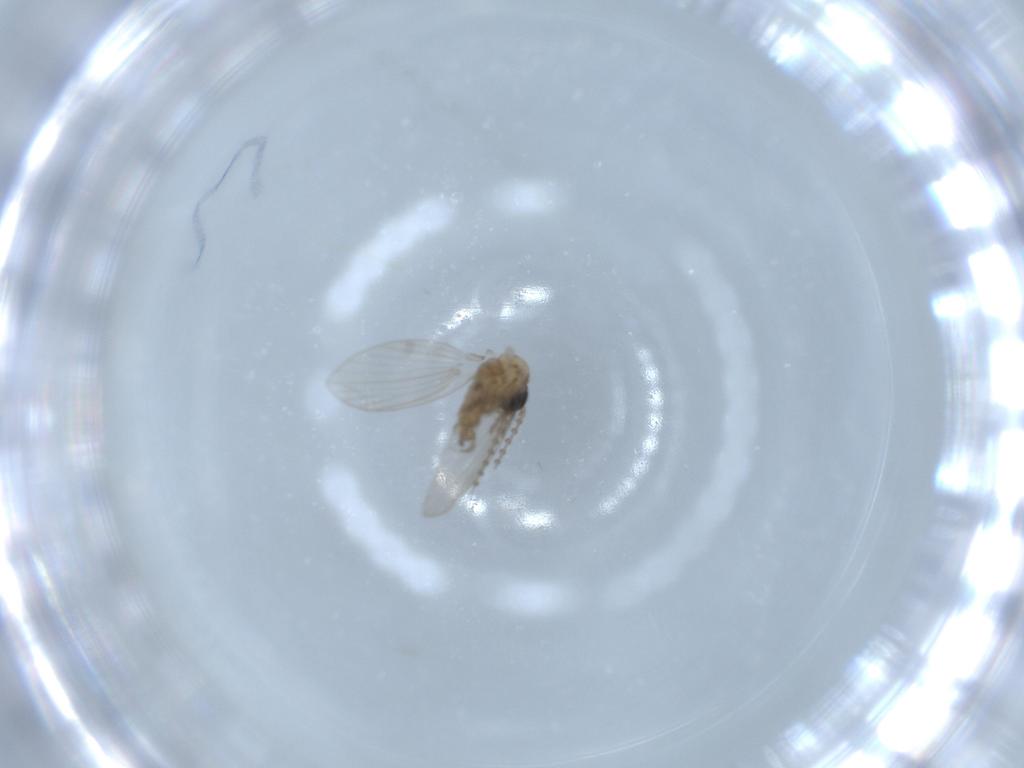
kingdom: Animalia
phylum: Arthropoda
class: Insecta
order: Diptera
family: Psychodidae
